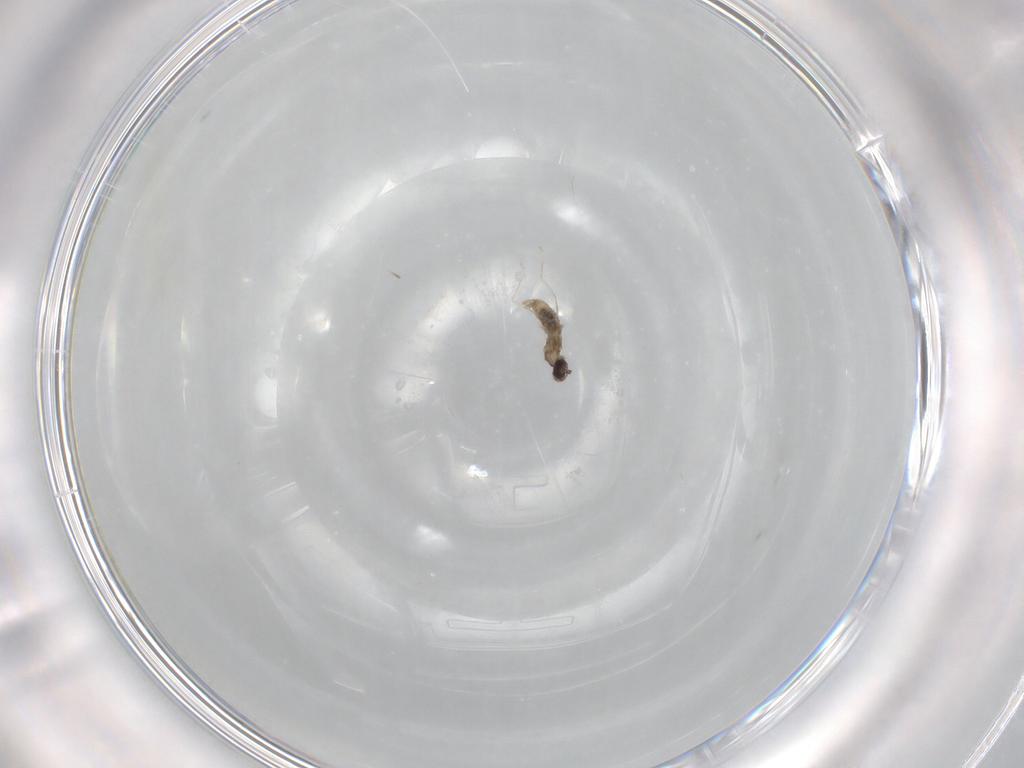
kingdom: Animalia
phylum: Arthropoda
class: Insecta
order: Diptera
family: Cecidomyiidae
